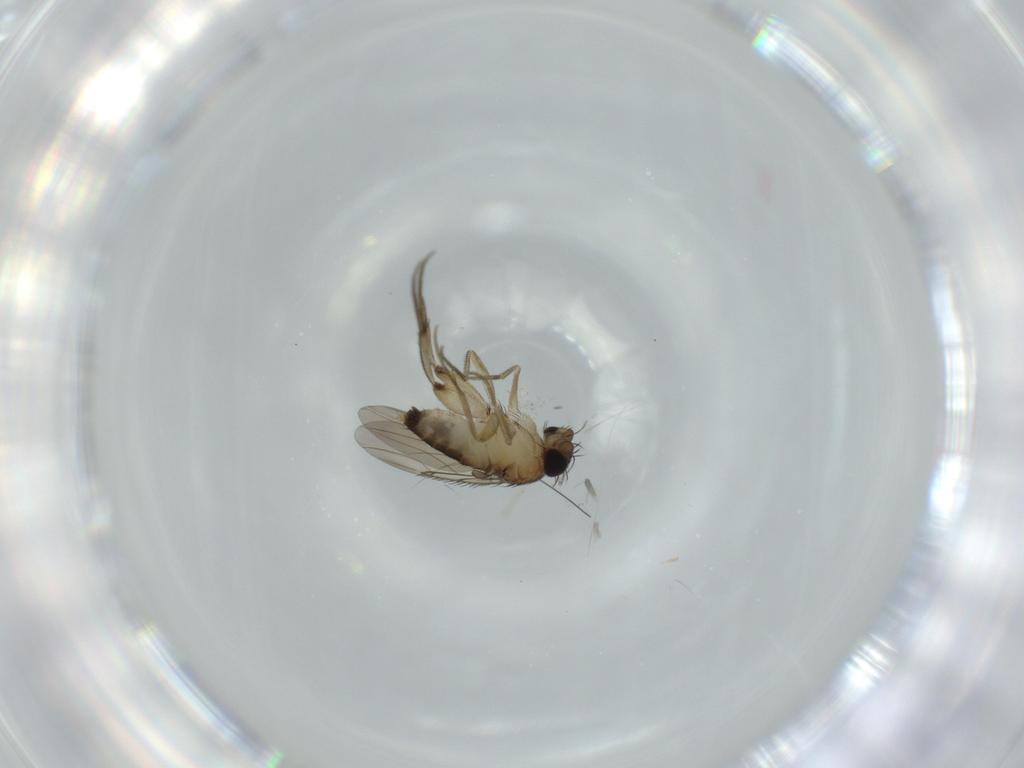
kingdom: Animalia
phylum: Arthropoda
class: Insecta
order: Diptera
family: Phoridae
